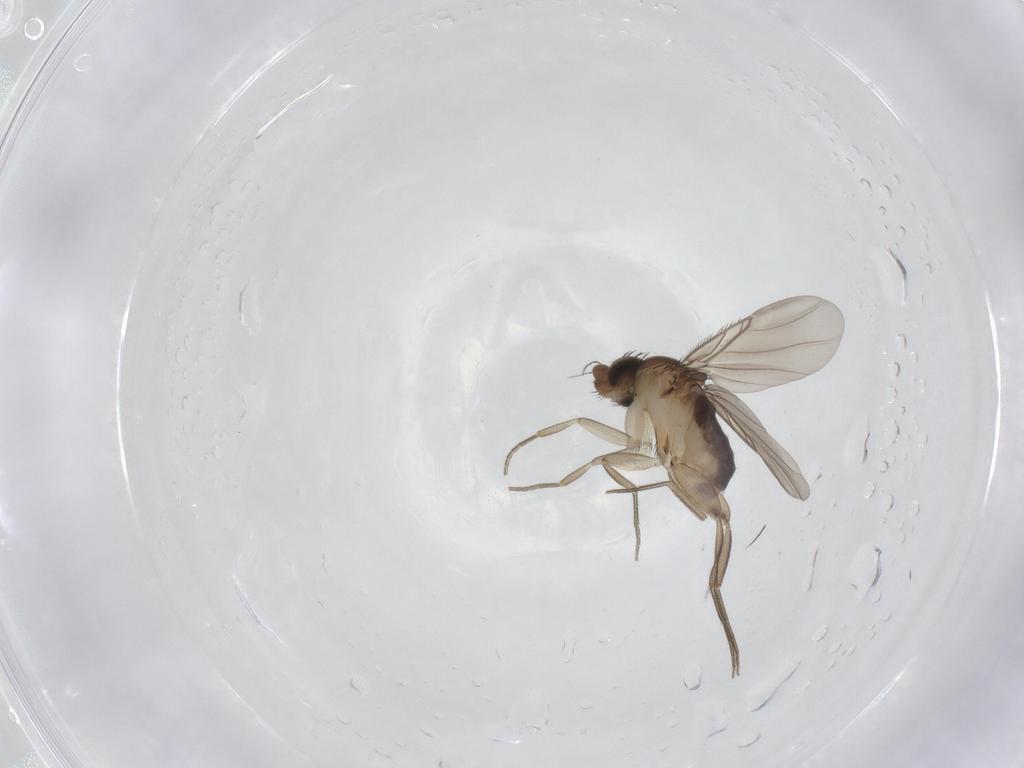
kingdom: Animalia
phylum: Arthropoda
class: Insecta
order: Diptera
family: Phoridae
